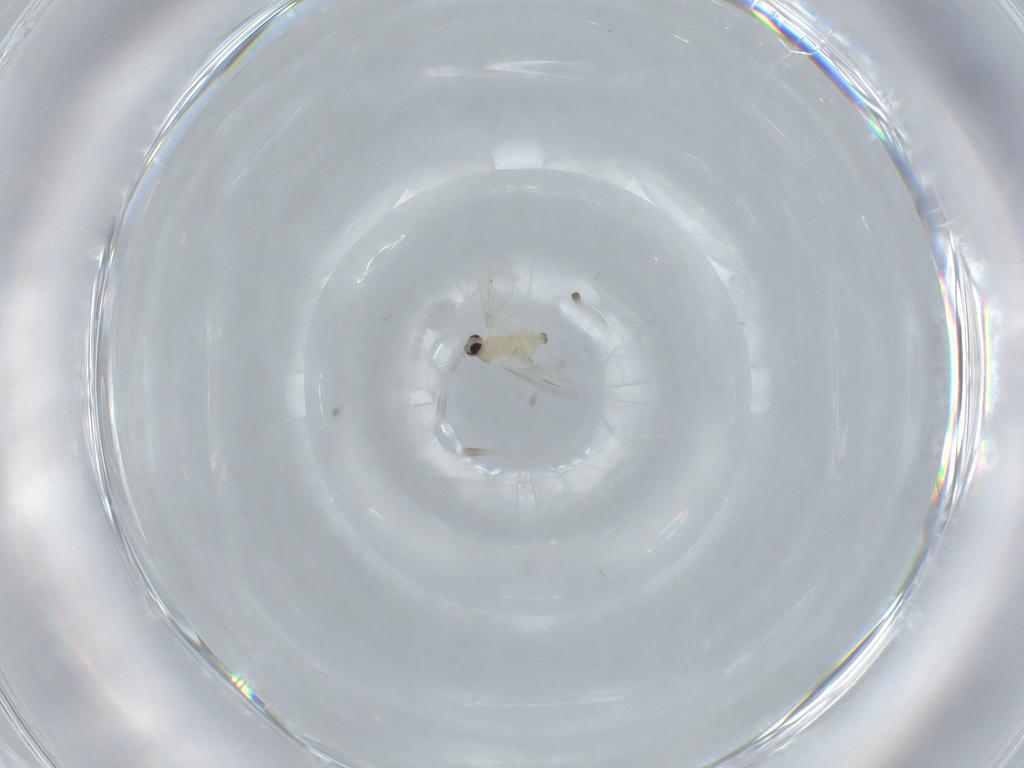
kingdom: Animalia
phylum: Arthropoda
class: Insecta
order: Diptera
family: Cecidomyiidae
